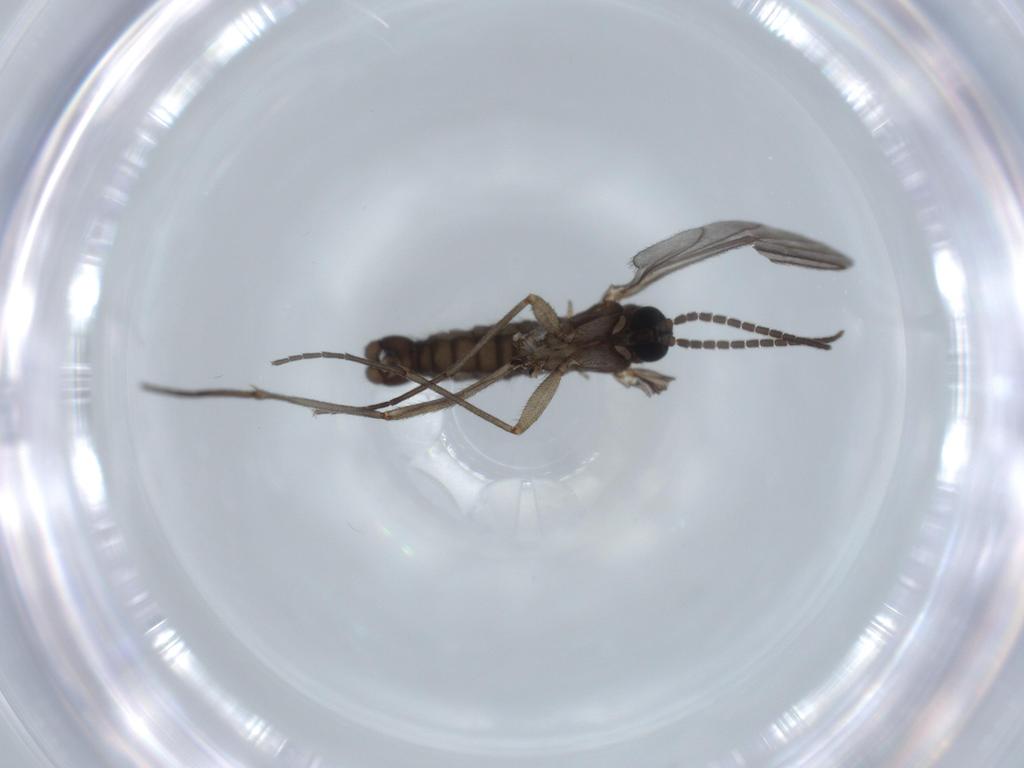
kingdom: Animalia
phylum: Arthropoda
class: Insecta
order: Diptera
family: Sciaridae
